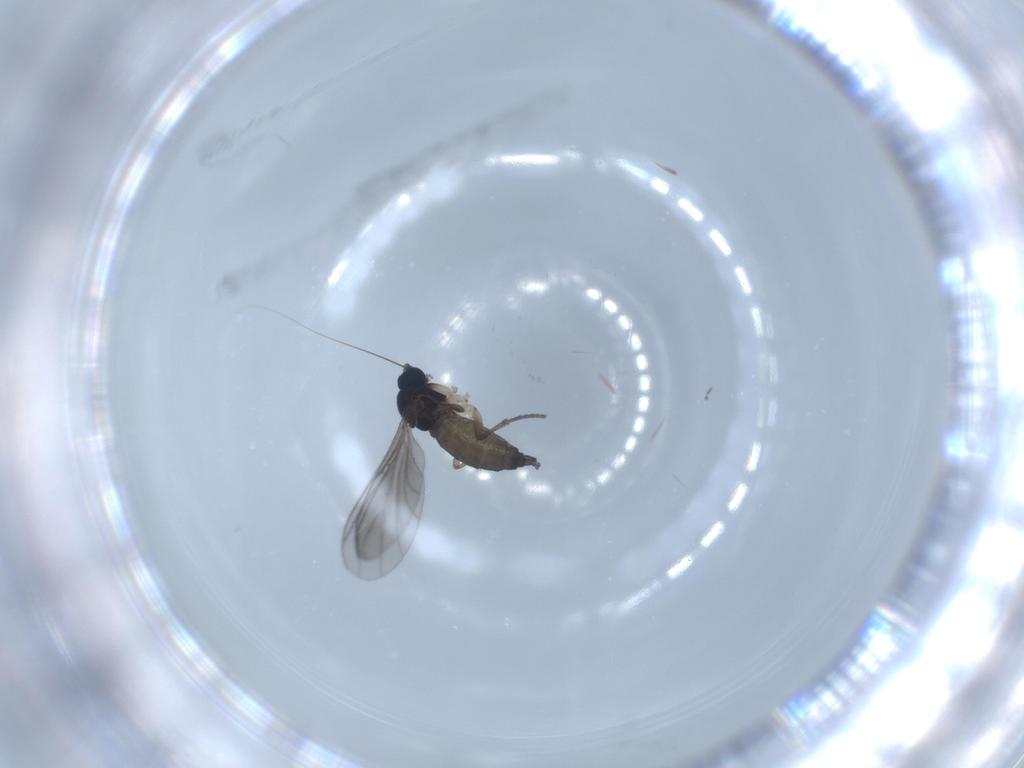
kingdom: Animalia
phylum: Arthropoda
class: Insecta
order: Diptera
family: Sciaridae
